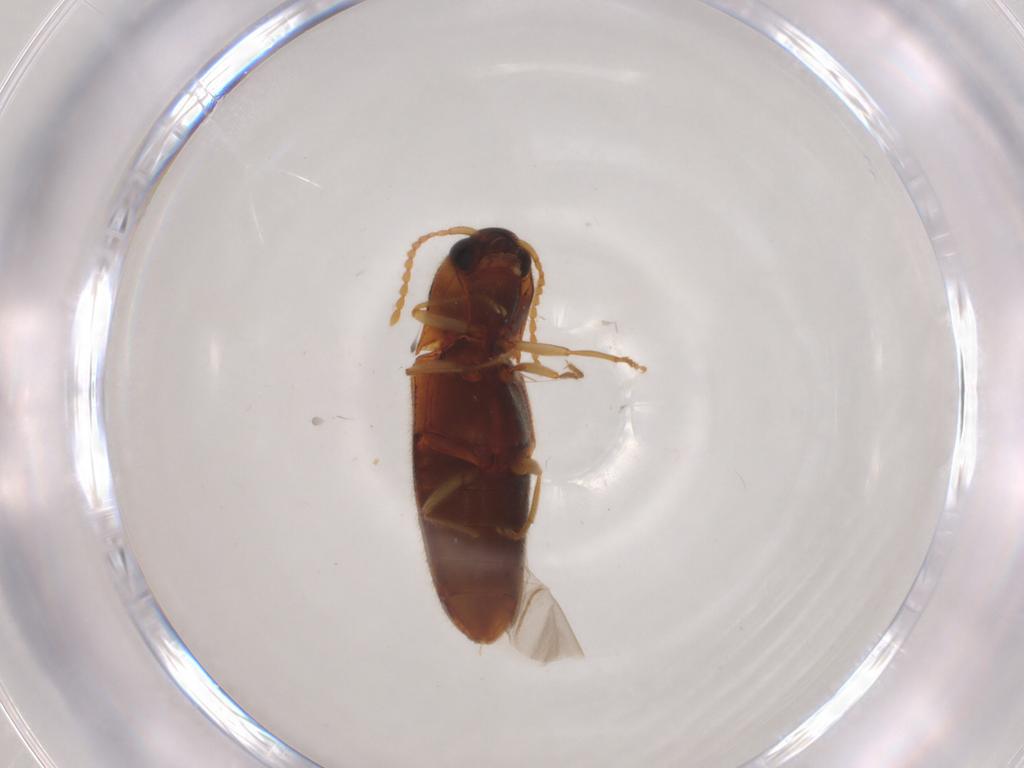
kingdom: Animalia
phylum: Arthropoda
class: Insecta
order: Coleoptera
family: Elateridae
